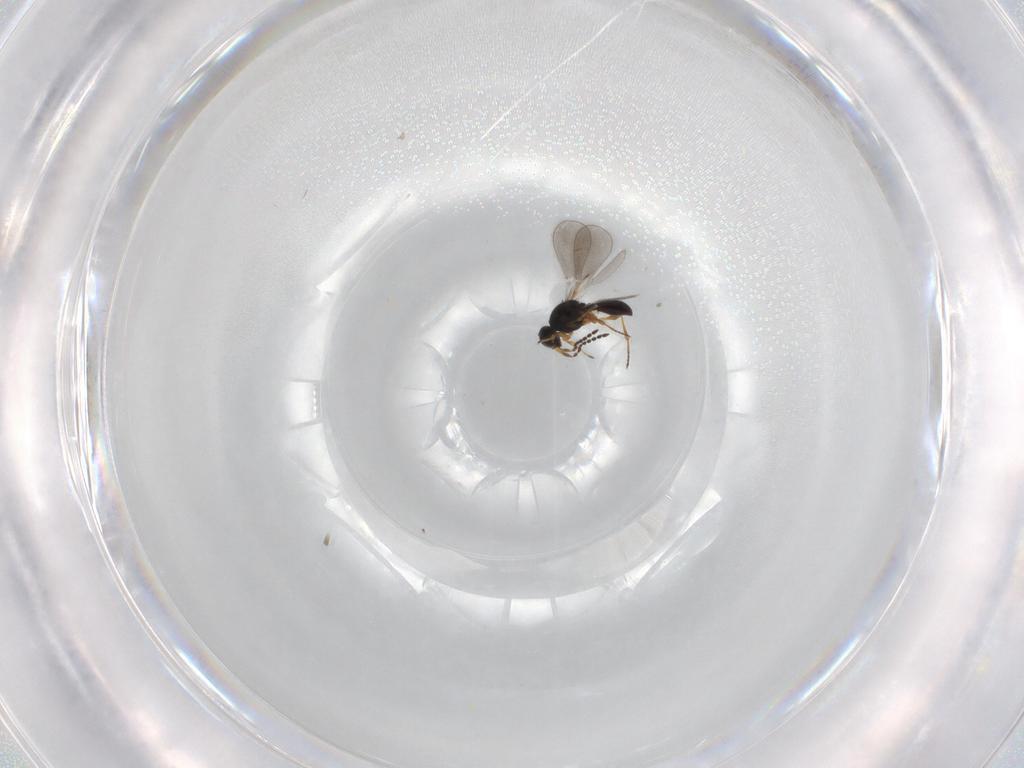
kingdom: Animalia
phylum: Arthropoda
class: Insecta
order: Hymenoptera
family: Platygastridae
